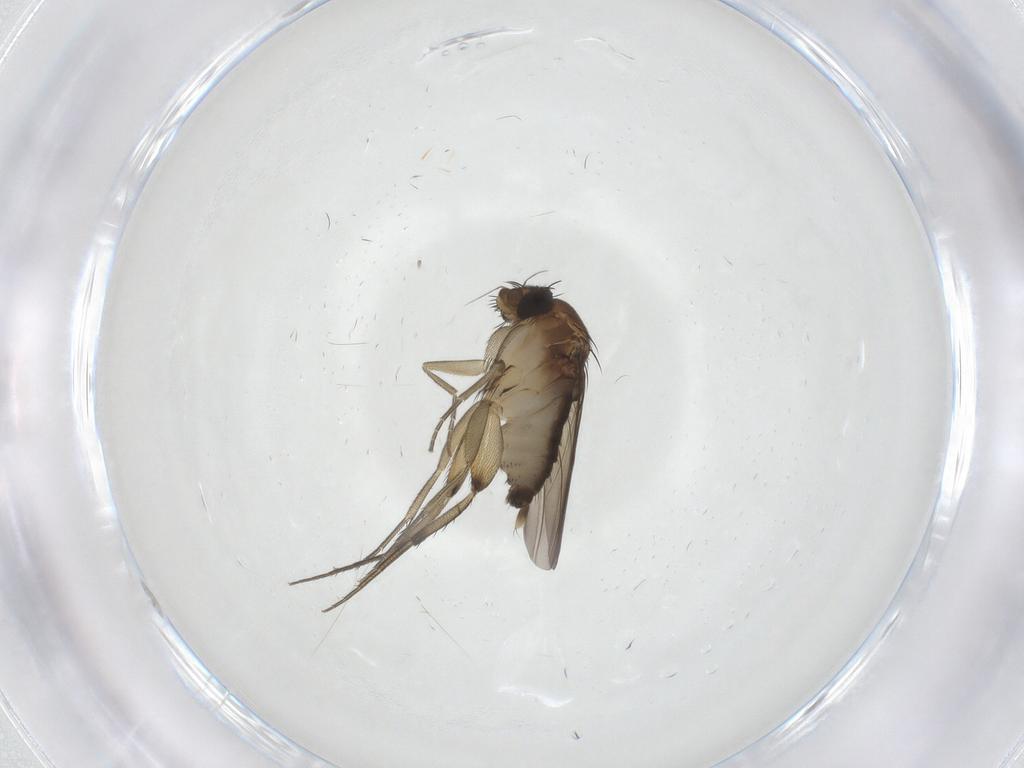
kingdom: Animalia
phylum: Arthropoda
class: Insecta
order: Diptera
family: Phoridae
